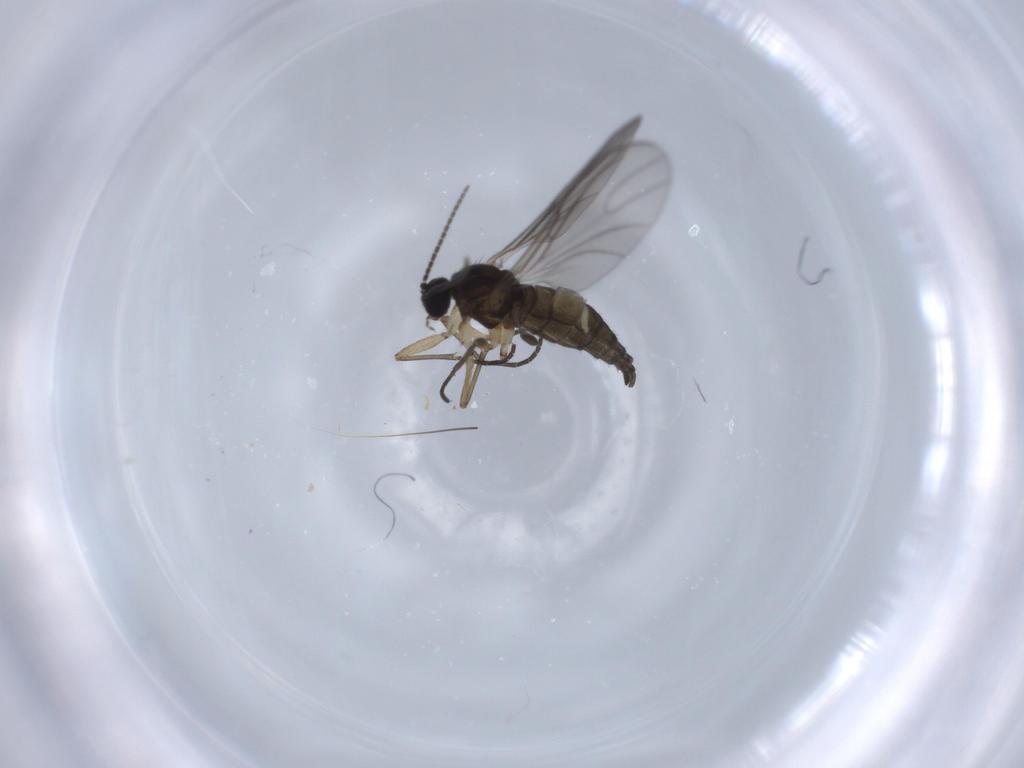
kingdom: Animalia
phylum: Arthropoda
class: Insecta
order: Diptera
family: Sciaridae
